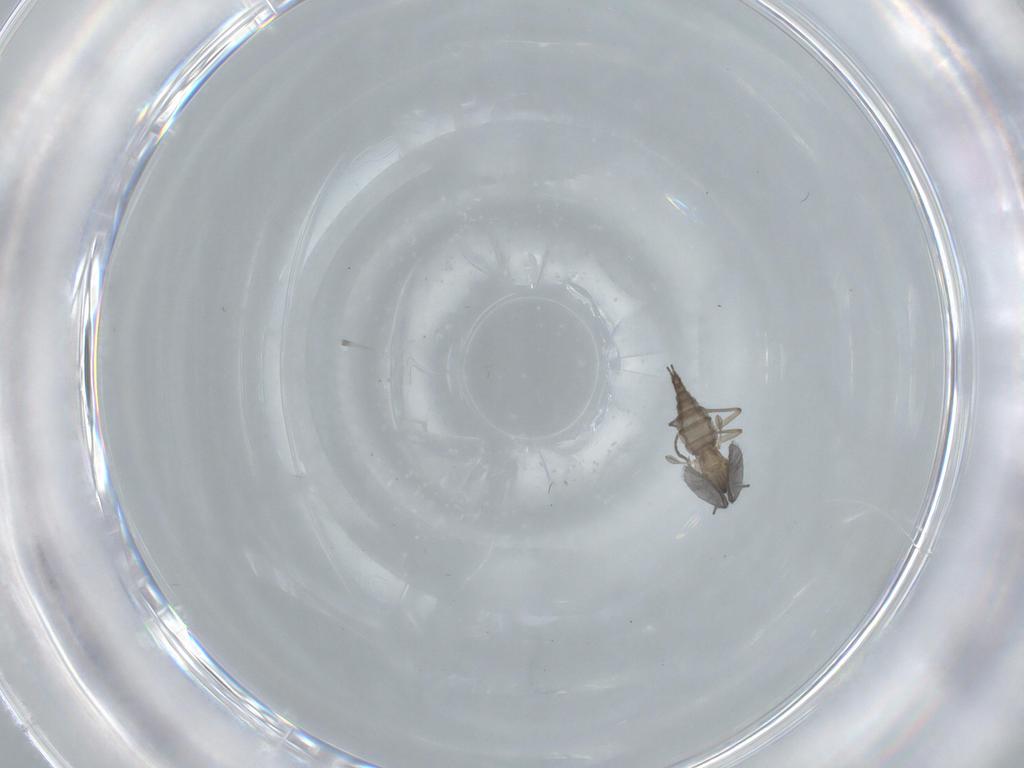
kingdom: Animalia
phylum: Arthropoda
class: Insecta
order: Diptera
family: Sciaridae
